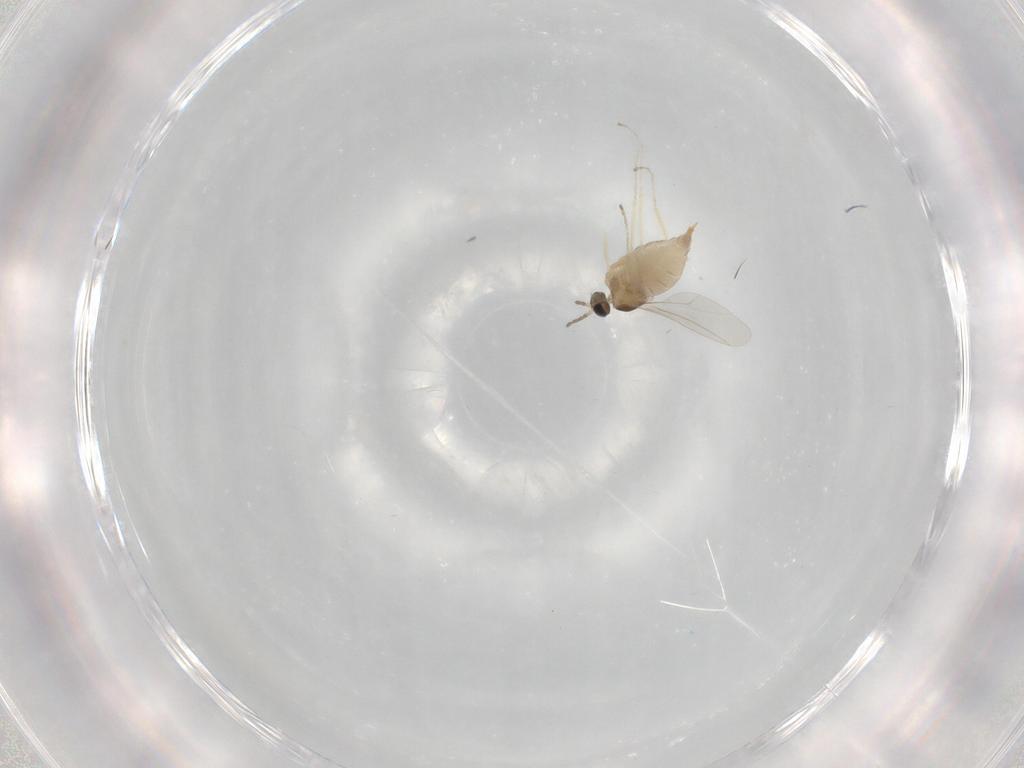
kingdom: Animalia
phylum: Arthropoda
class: Insecta
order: Diptera
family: Cecidomyiidae
